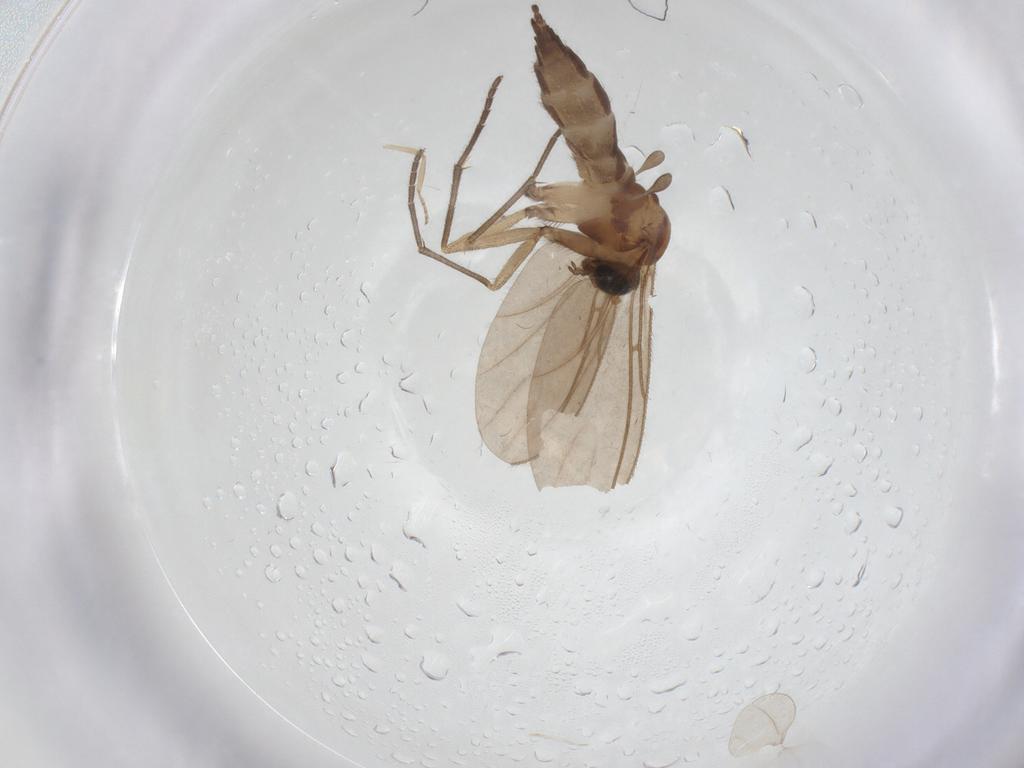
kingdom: Animalia
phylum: Arthropoda
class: Insecta
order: Diptera
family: Sciaridae
